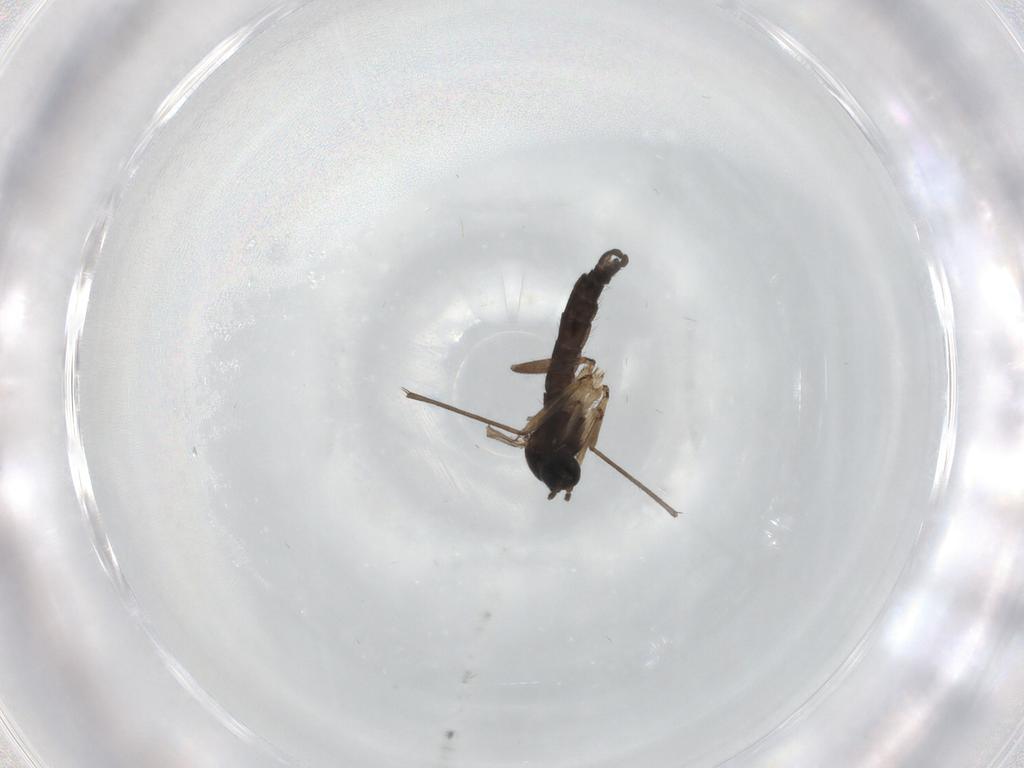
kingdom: Animalia
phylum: Arthropoda
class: Insecta
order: Diptera
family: Sciaridae
